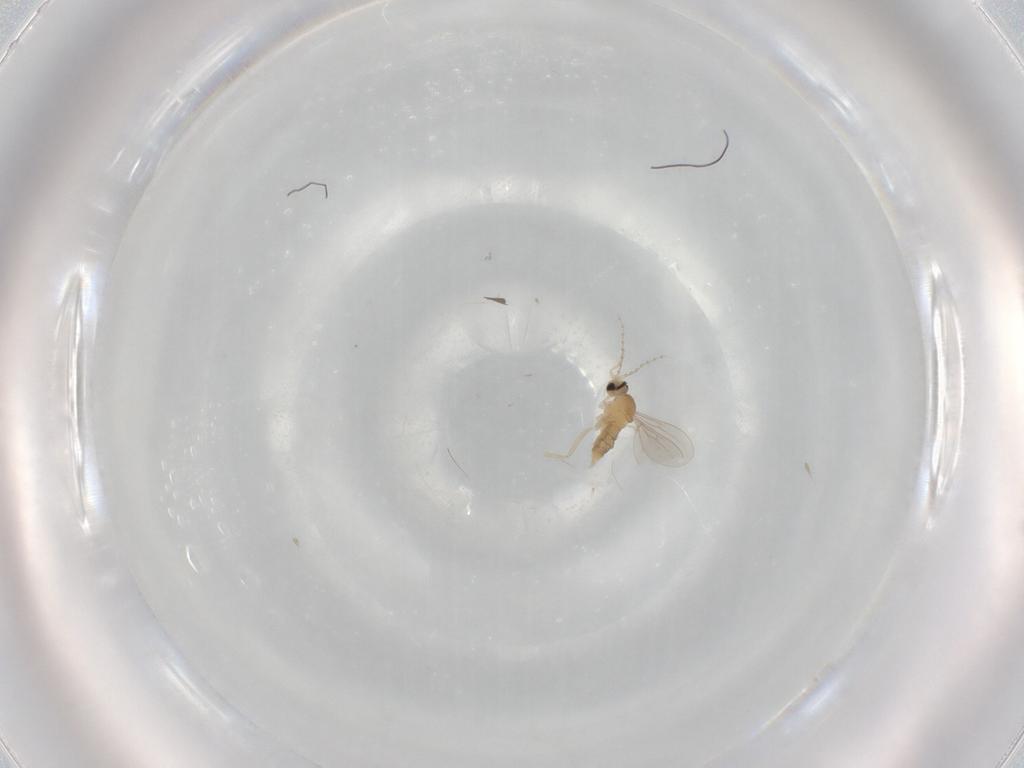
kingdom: Animalia
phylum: Arthropoda
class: Insecta
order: Diptera
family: Cecidomyiidae
